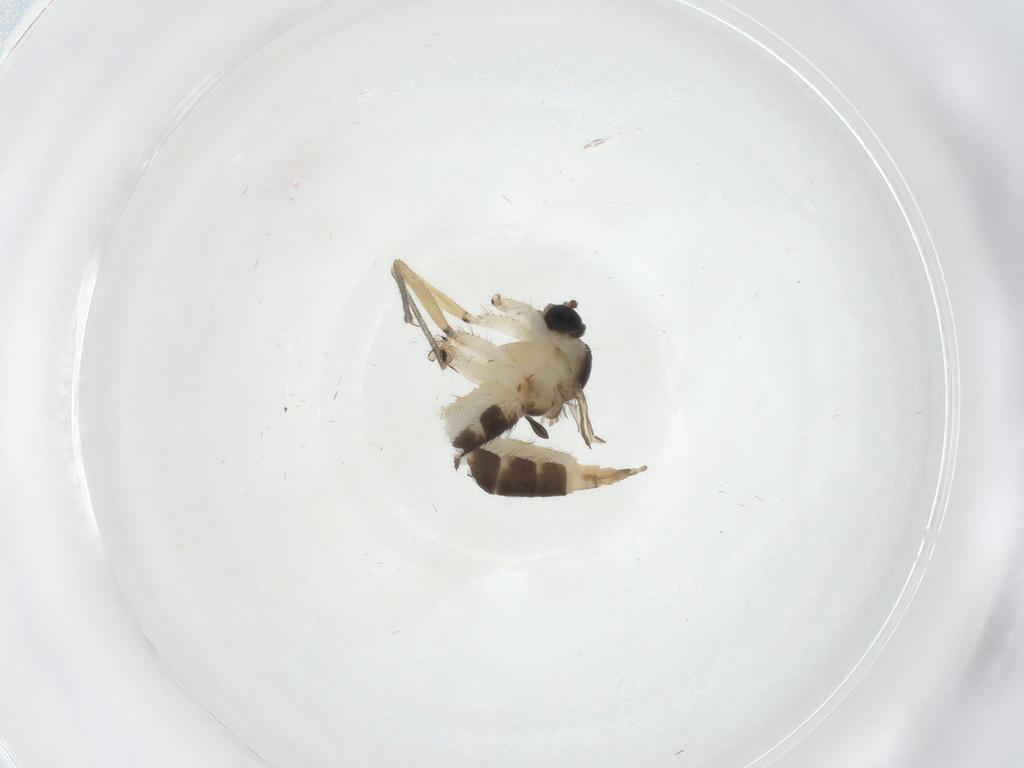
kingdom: Animalia
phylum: Arthropoda
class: Insecta
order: Diptera
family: Sciaridae
